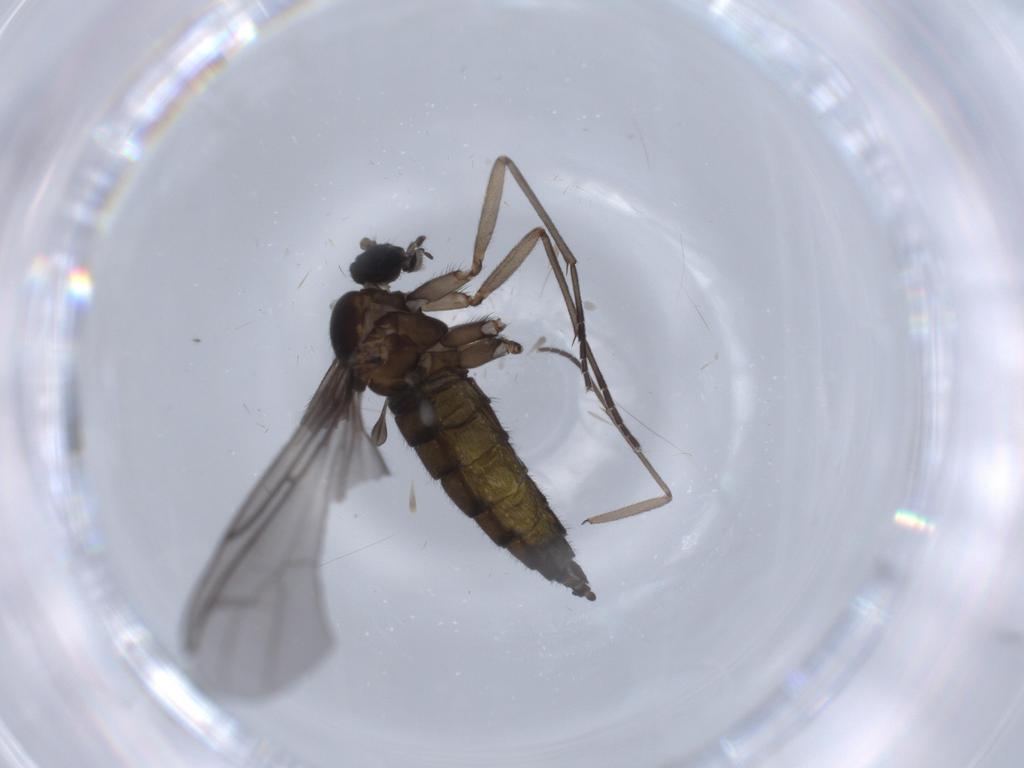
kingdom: Animalia
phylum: Arthropoda
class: Insecta
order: Diptera
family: Sciaridae
